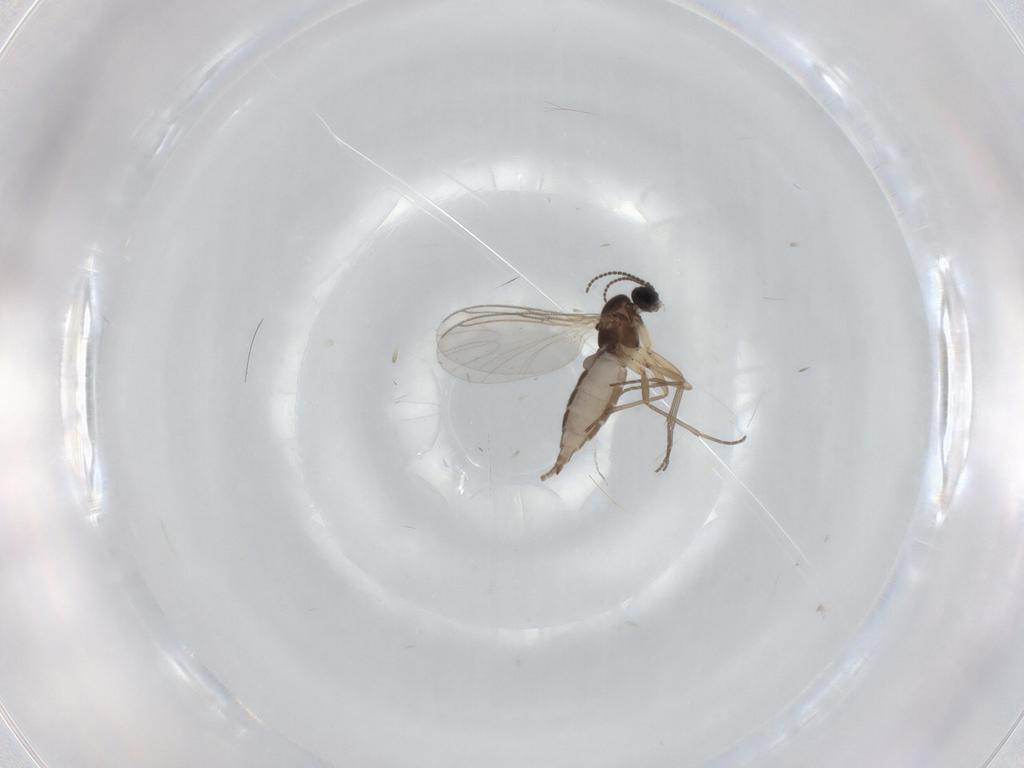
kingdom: Animalia
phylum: Arthropoda
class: Insecta
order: Diptera
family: Sciaridae
